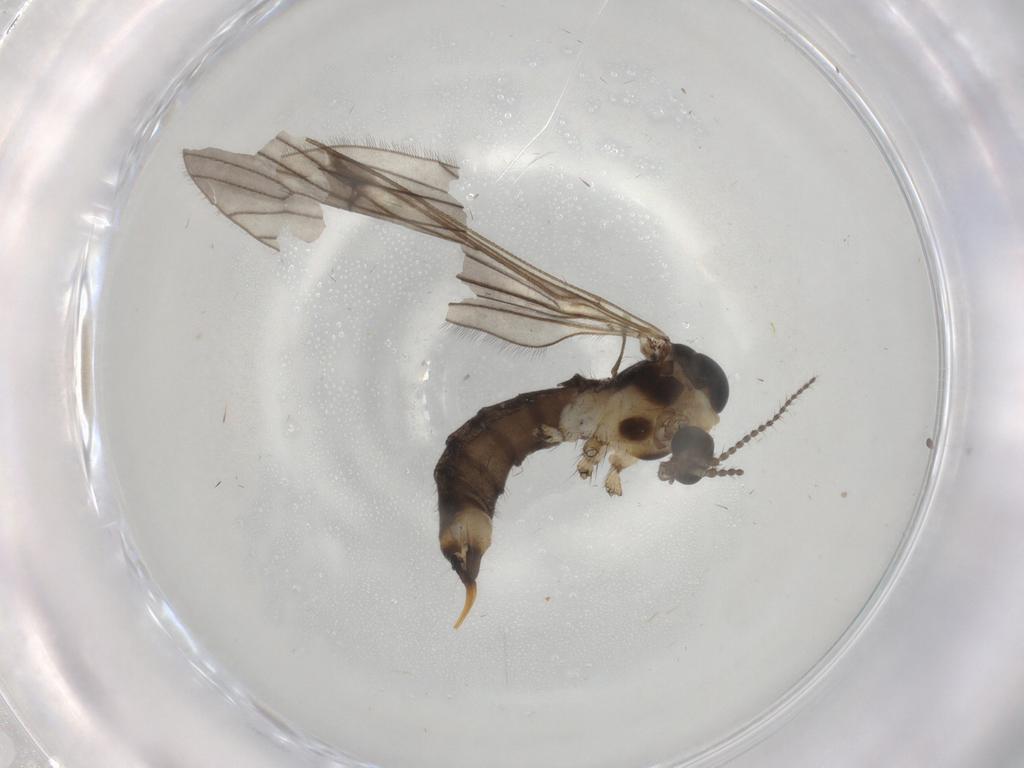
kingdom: Animalia
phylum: Arthropoda
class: Insecta
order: Diptera
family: Limoniidae
